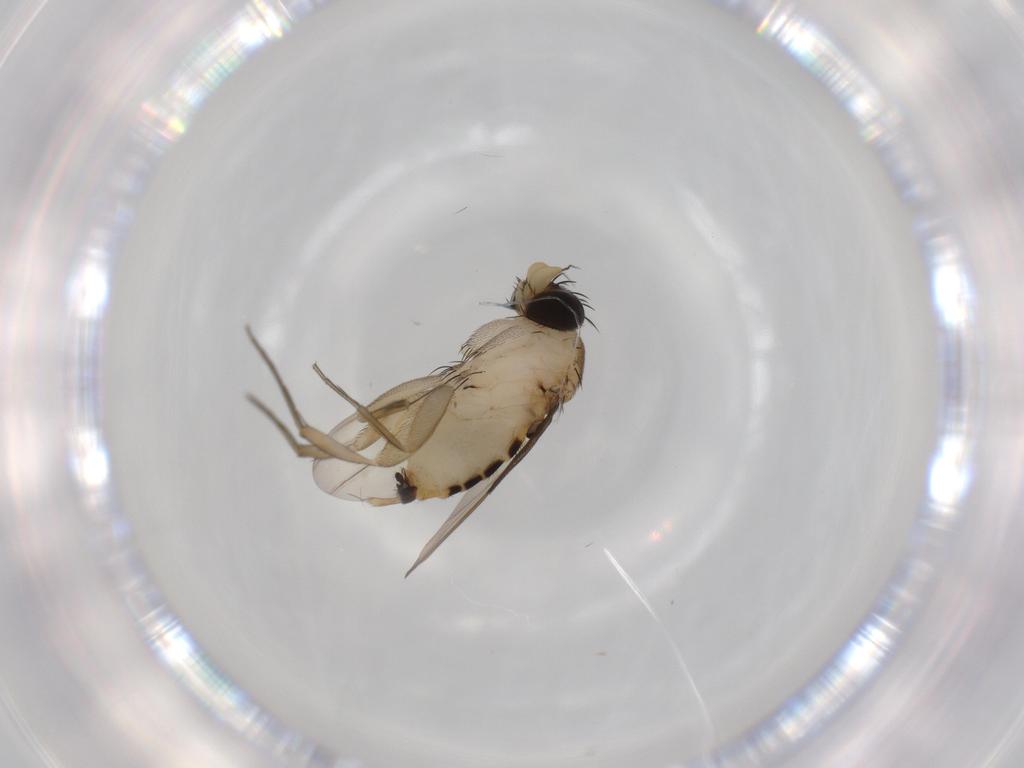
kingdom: Animalia
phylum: Arthropoda
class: Insecta
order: Diptera
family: Phoridae
